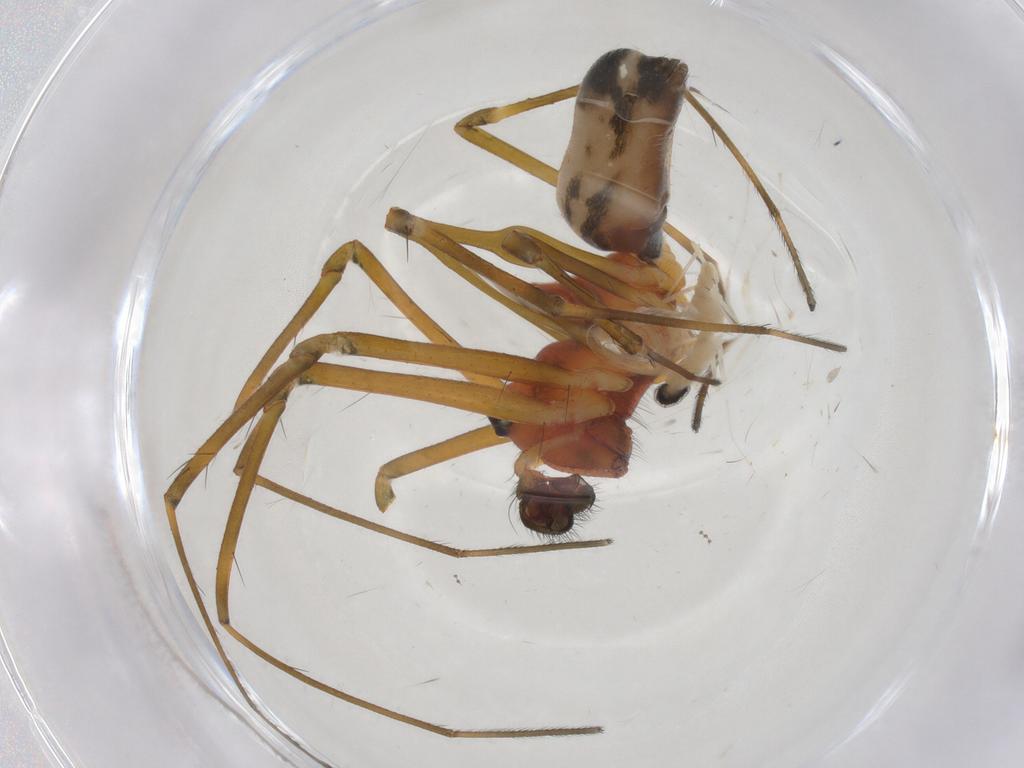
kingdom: Animalia
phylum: Arthropoda
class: Arachnida
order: Araneae
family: Linyphiidae
